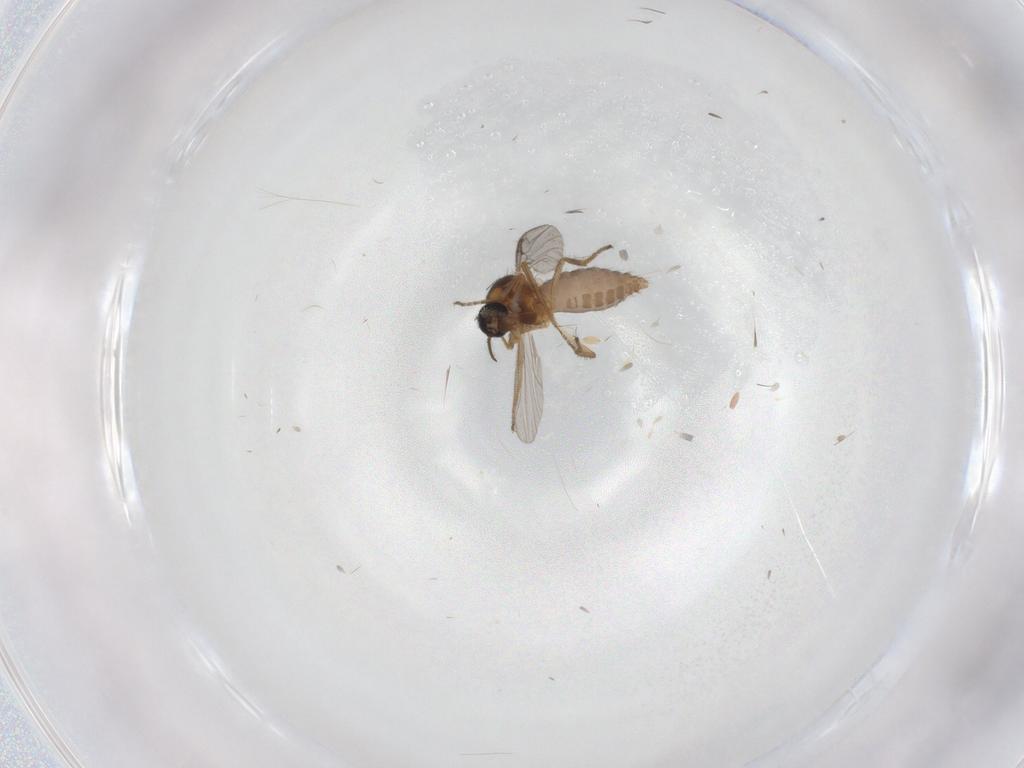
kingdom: Animalia
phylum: Arthropoda
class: Insecta
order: Diptera
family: Ceratopogonidae
